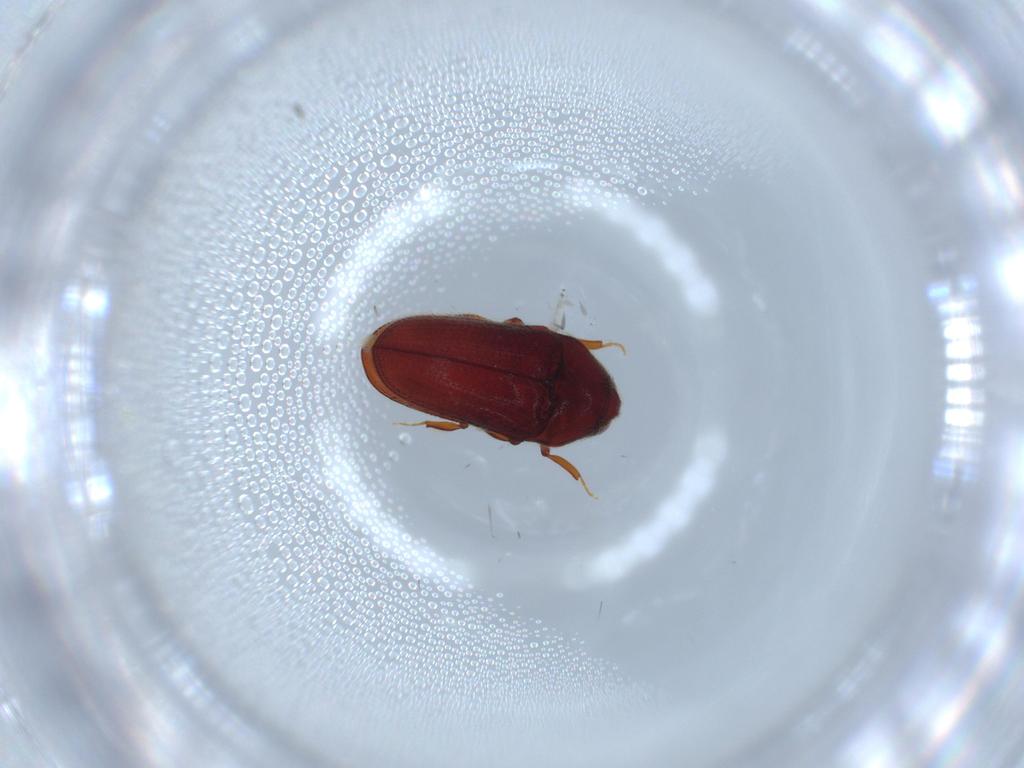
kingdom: Animalia
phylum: Arthropoda
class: Insecta
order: Coleoptera
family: Throscidae
